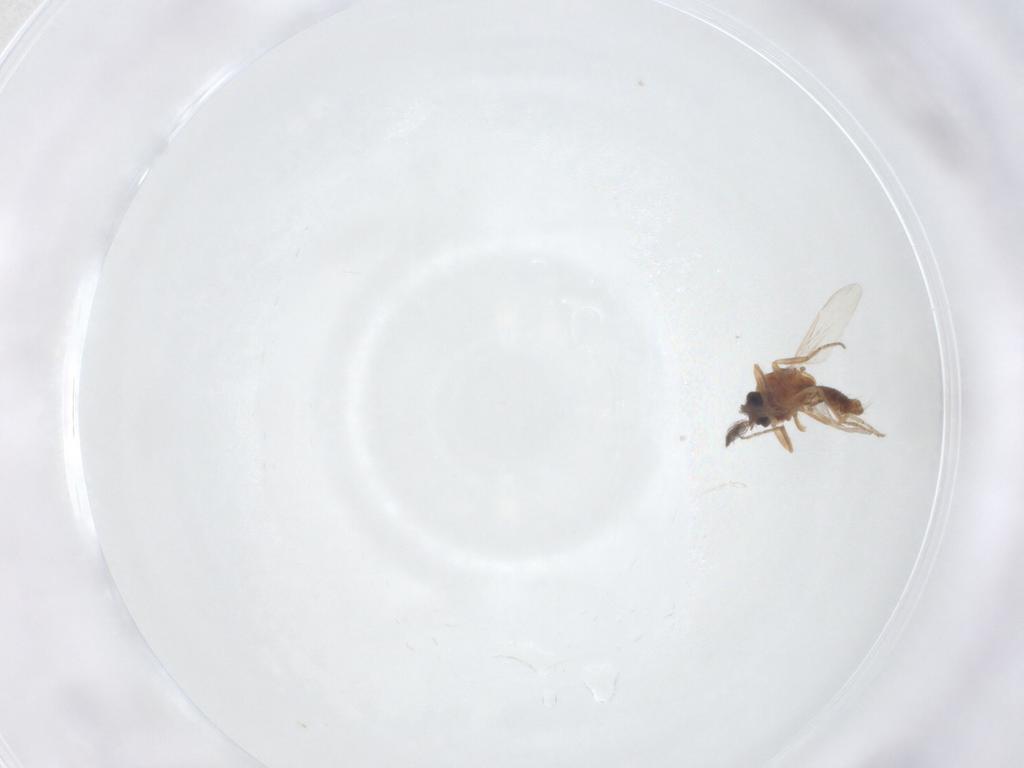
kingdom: Animalia
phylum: Arthropoda
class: Insecta
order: Diptera
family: Ceratopogonidae
